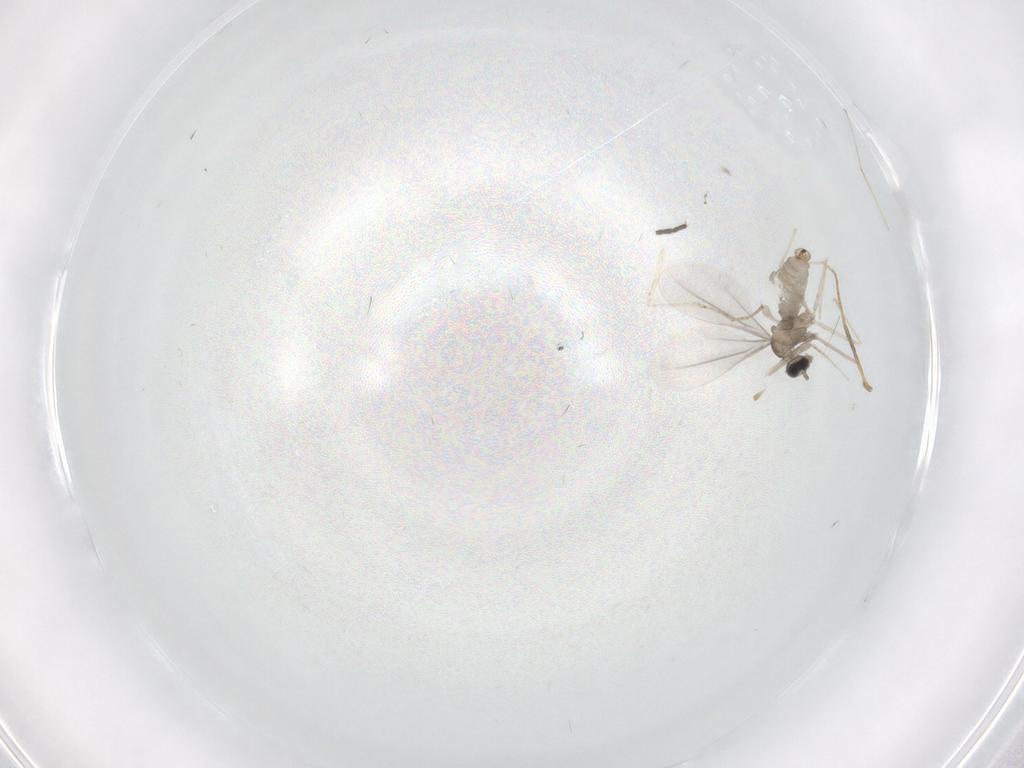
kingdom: Animalia
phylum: Arthropoda
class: Insecta
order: Diptera
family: Cecidomyiidae
